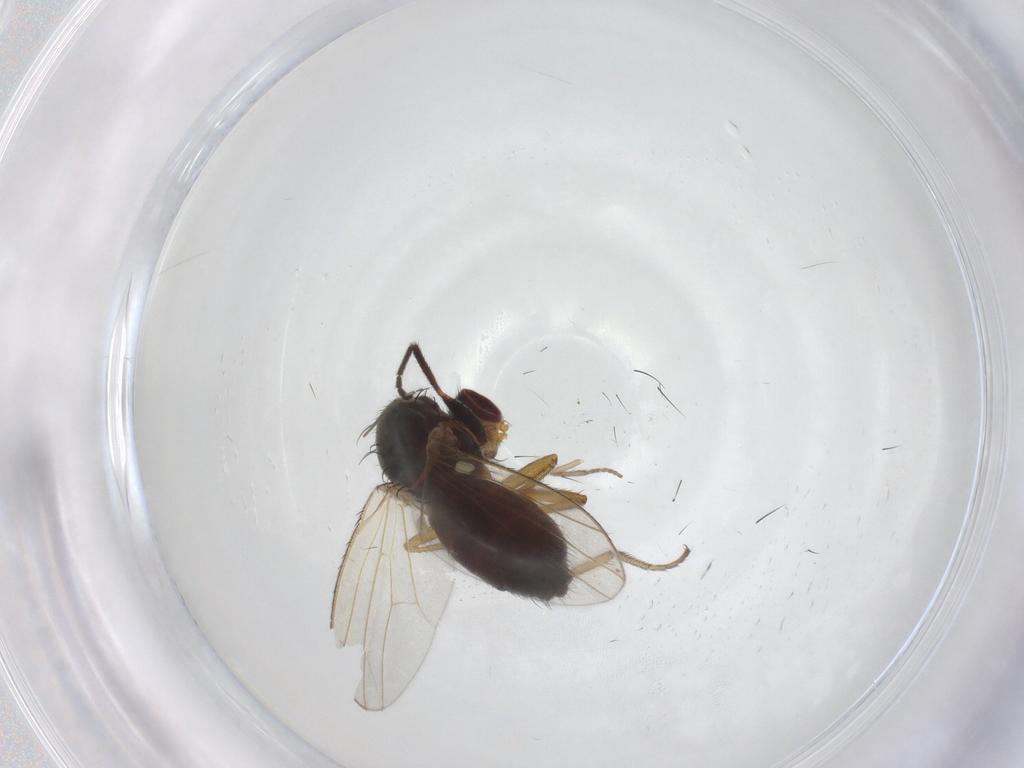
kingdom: Animalia
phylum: Arthropoda
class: Insecta
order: Diptera
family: Heleomyzidae
